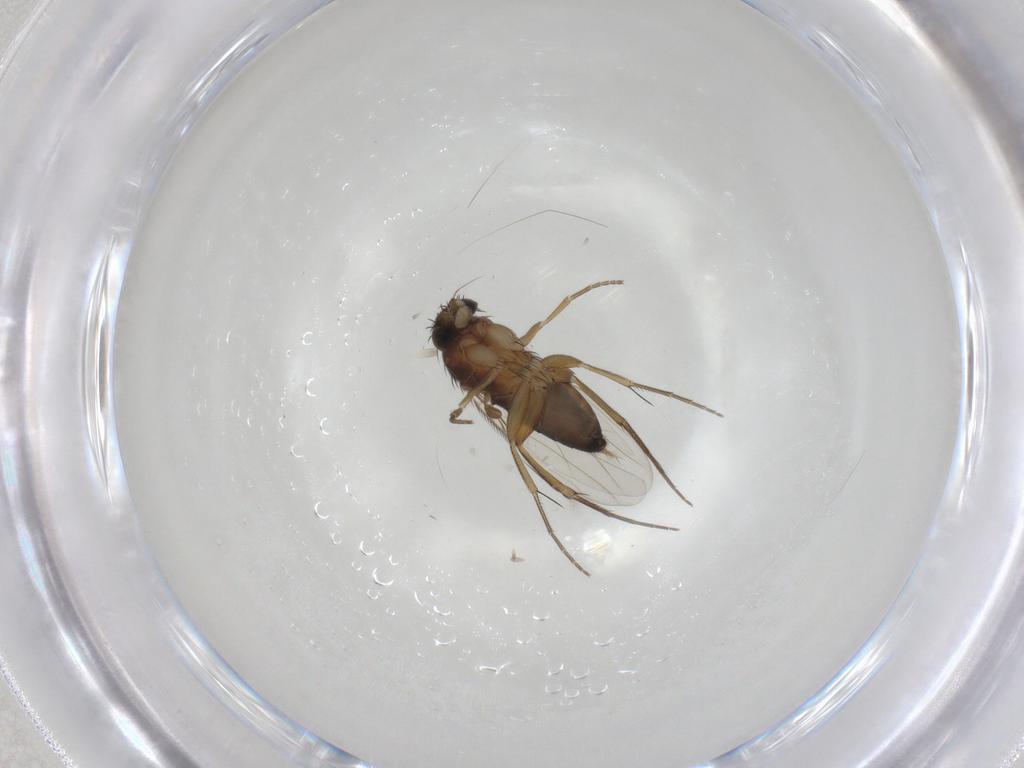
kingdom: Animalia
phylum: Arthropoda
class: Insecta
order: Diptera
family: Phoridae
